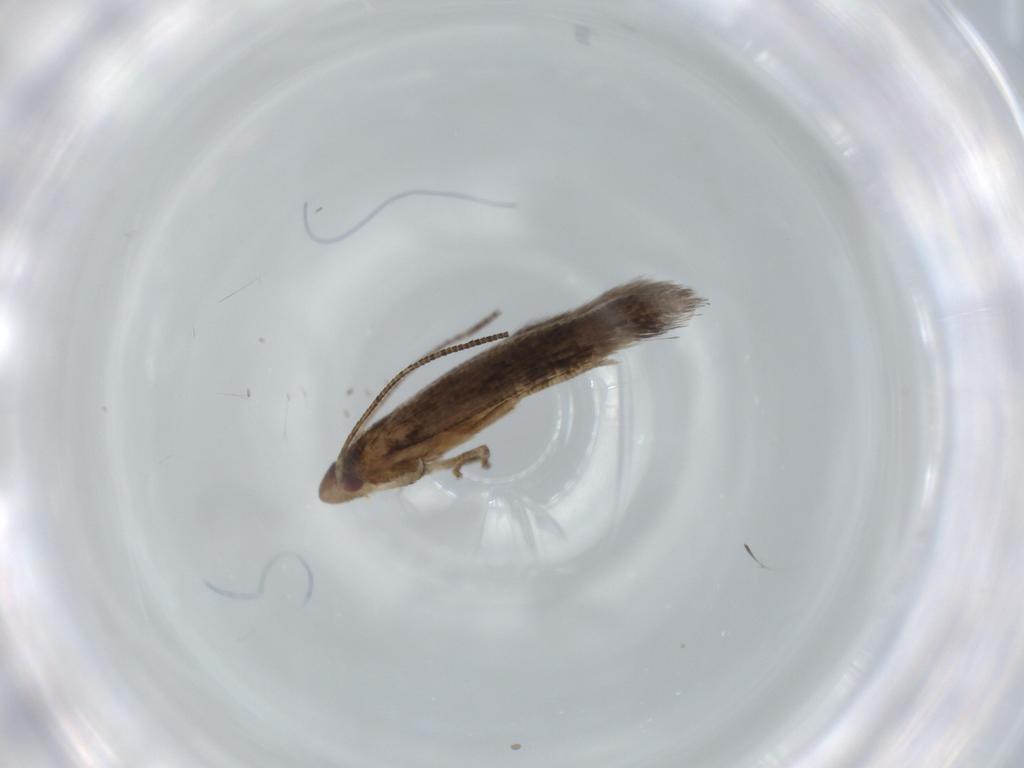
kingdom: Animalia
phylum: Arthropoda
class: Insecta
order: Lepidoptera
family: Momphidae
